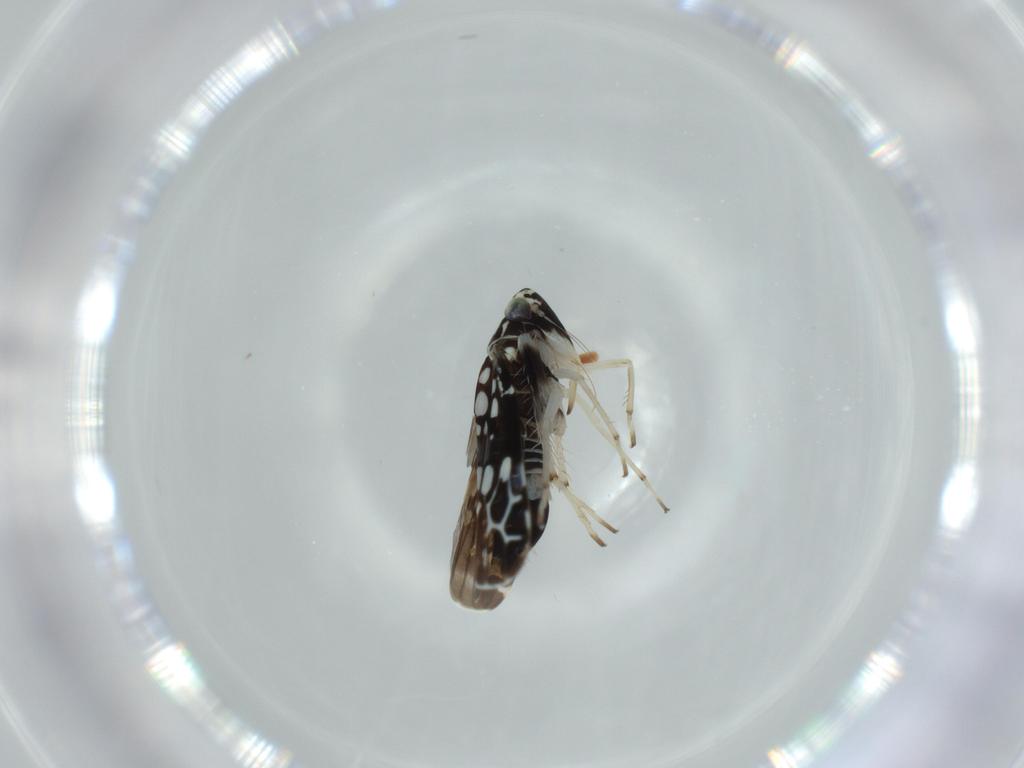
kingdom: Animalia
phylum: Arthropoda
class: Insecta
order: Hemiptera
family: Cicadellidae
